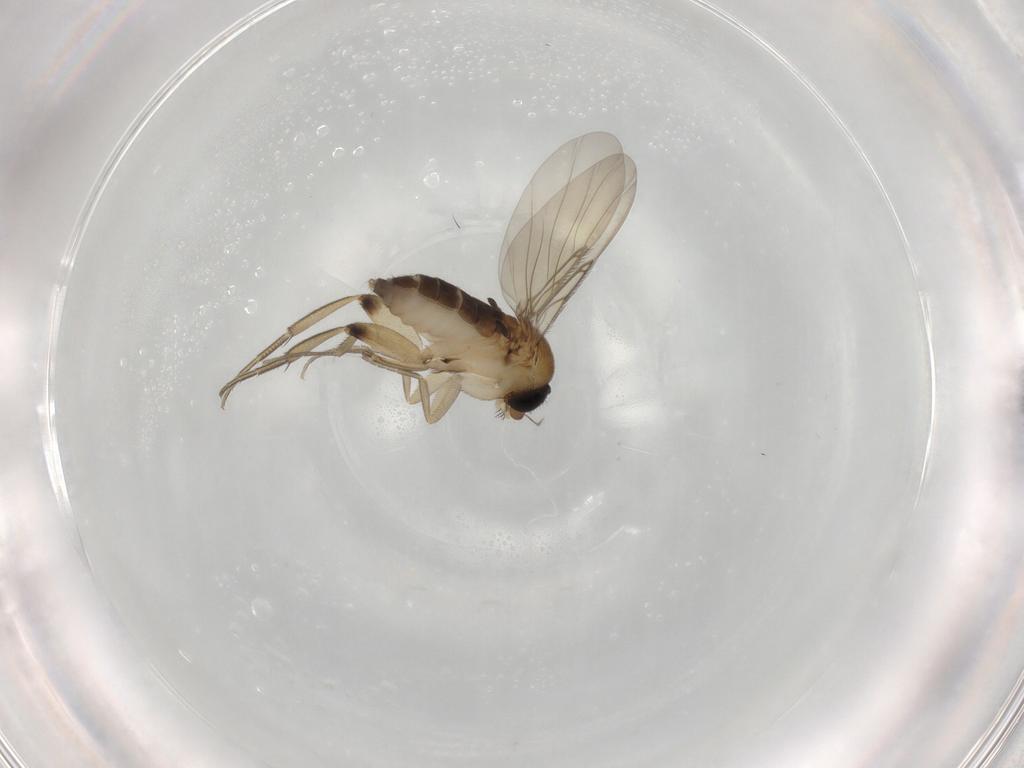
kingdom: Animalia
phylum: Arthropoda
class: Insecta
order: Diptera
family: Phoridae
